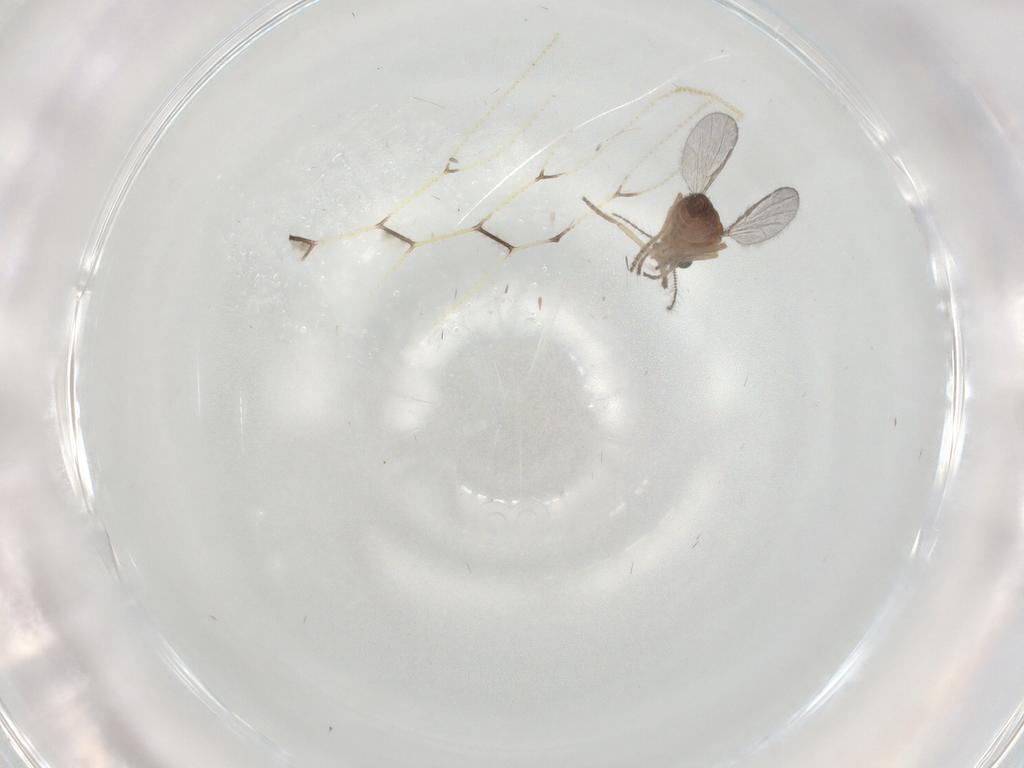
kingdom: Animalia
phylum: Arthropoda
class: Insecta
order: Diptera
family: Ceratopogonidae
